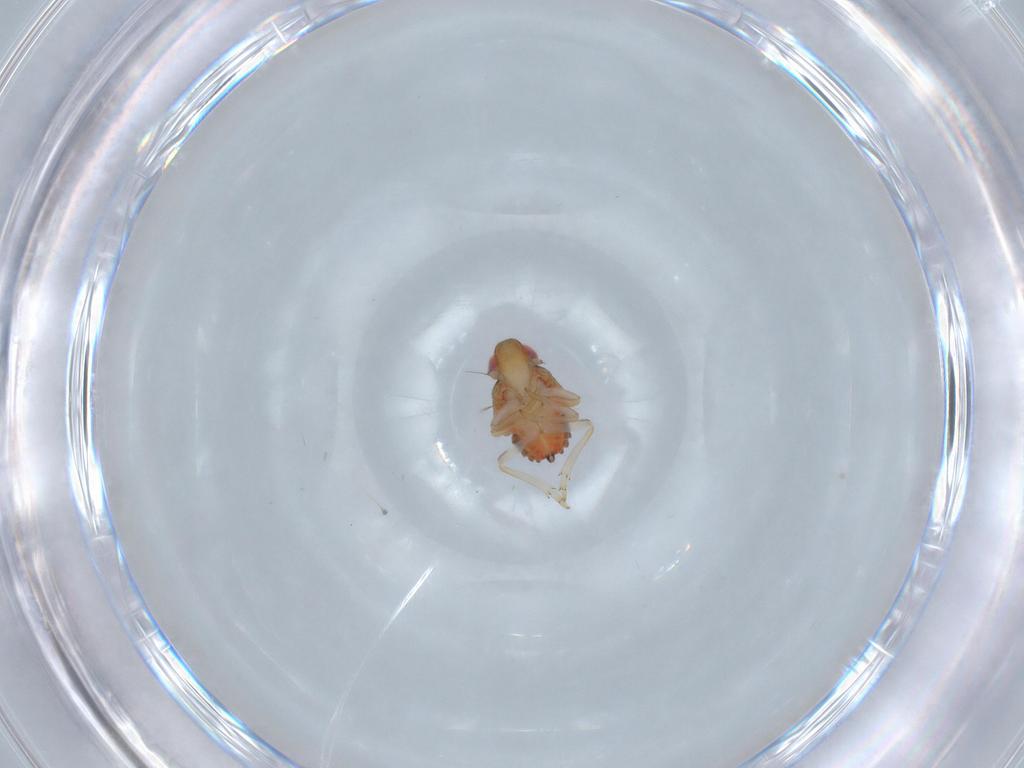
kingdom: Animalia
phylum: Arthropoda
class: Insecta
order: Hemiptera
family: Issidae
